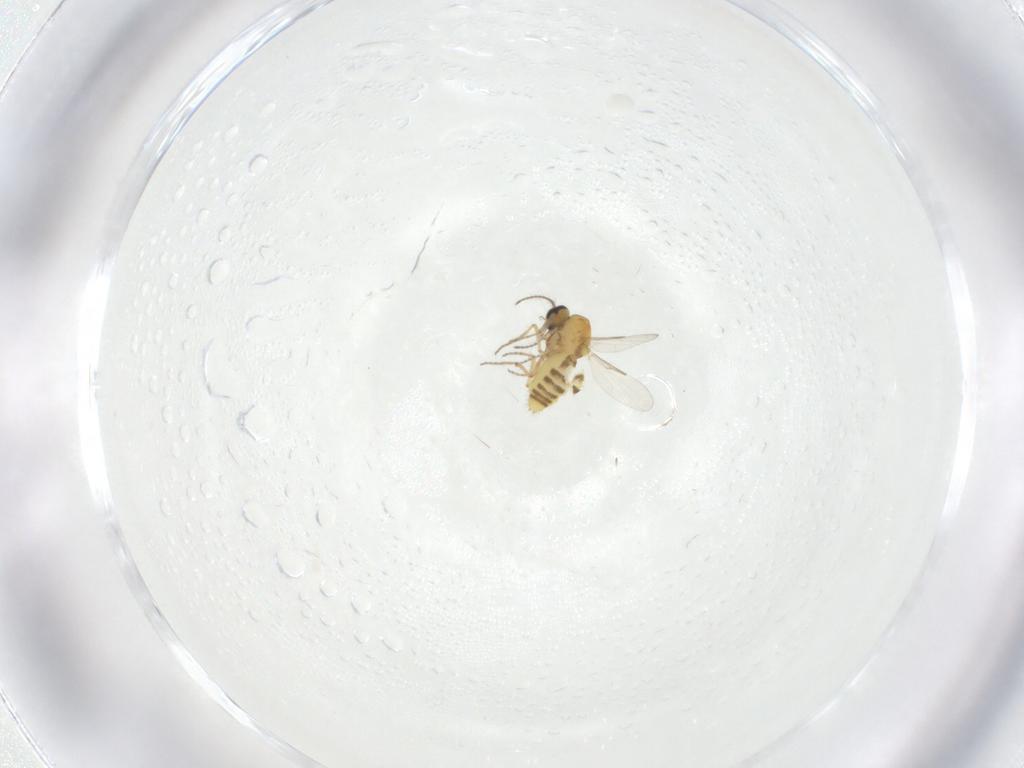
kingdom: Animalia
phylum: Arthropoda
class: Insecta
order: Diptera
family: Ceratopogonidae
